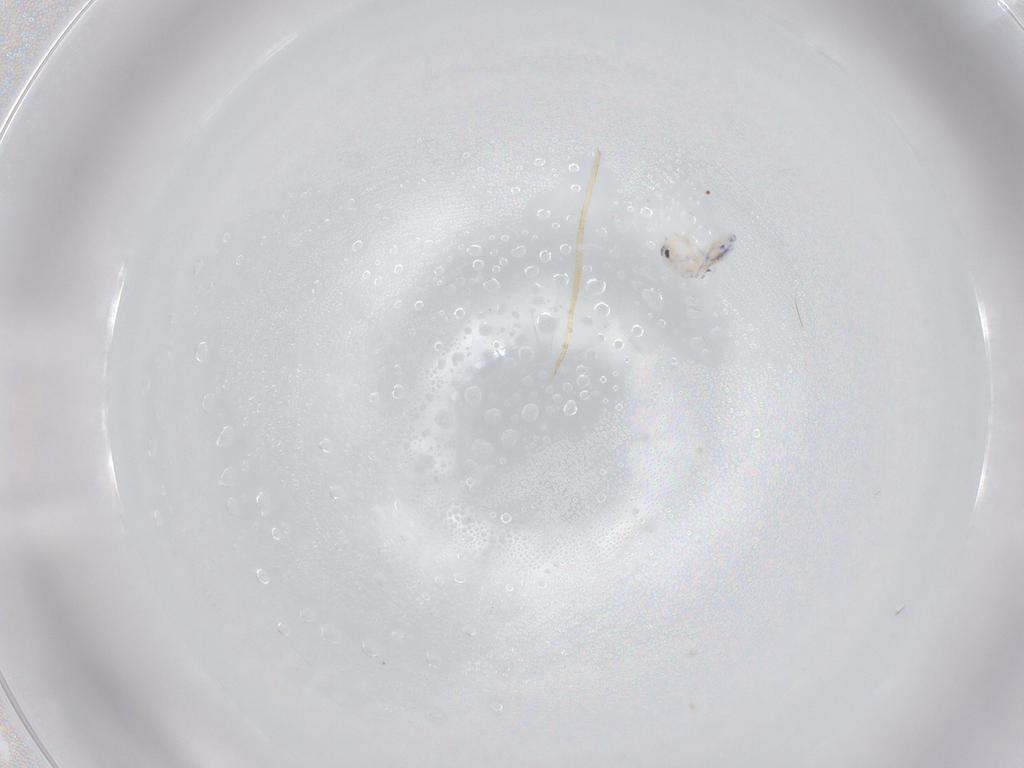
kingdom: Animalia
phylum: Arthropoda
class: Collembola
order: Entomobryomorpha
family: Entomobryidae
